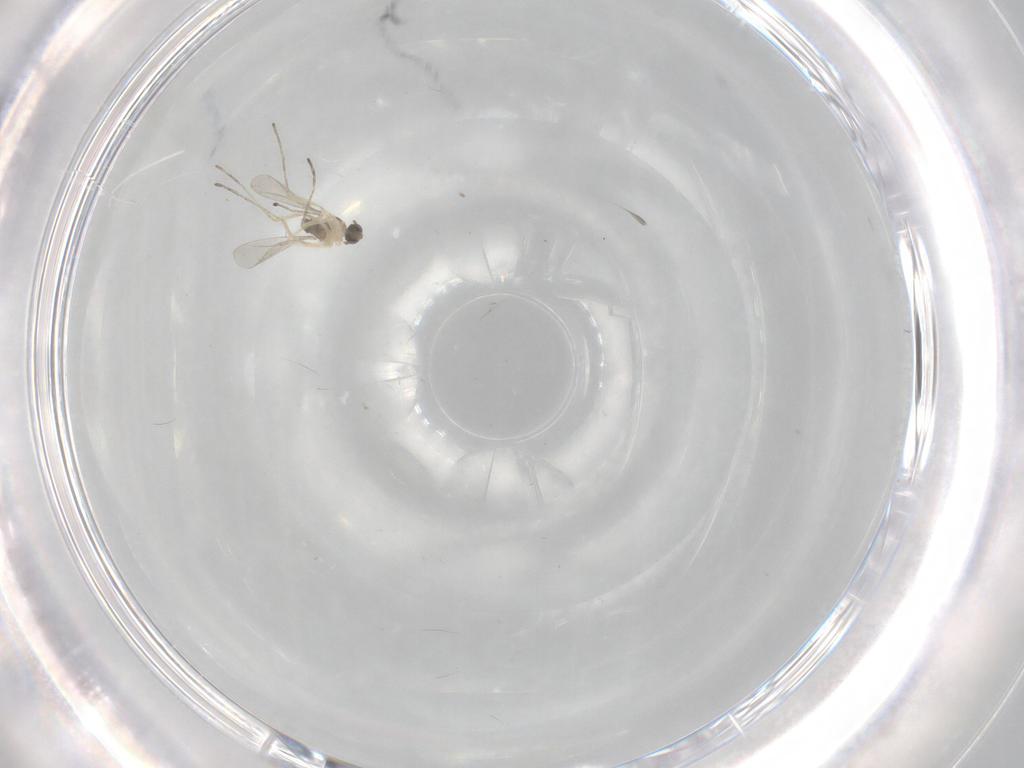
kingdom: Animalia
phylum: Arthropoda
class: Insecta
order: Diptera
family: Cecidomyiidae
